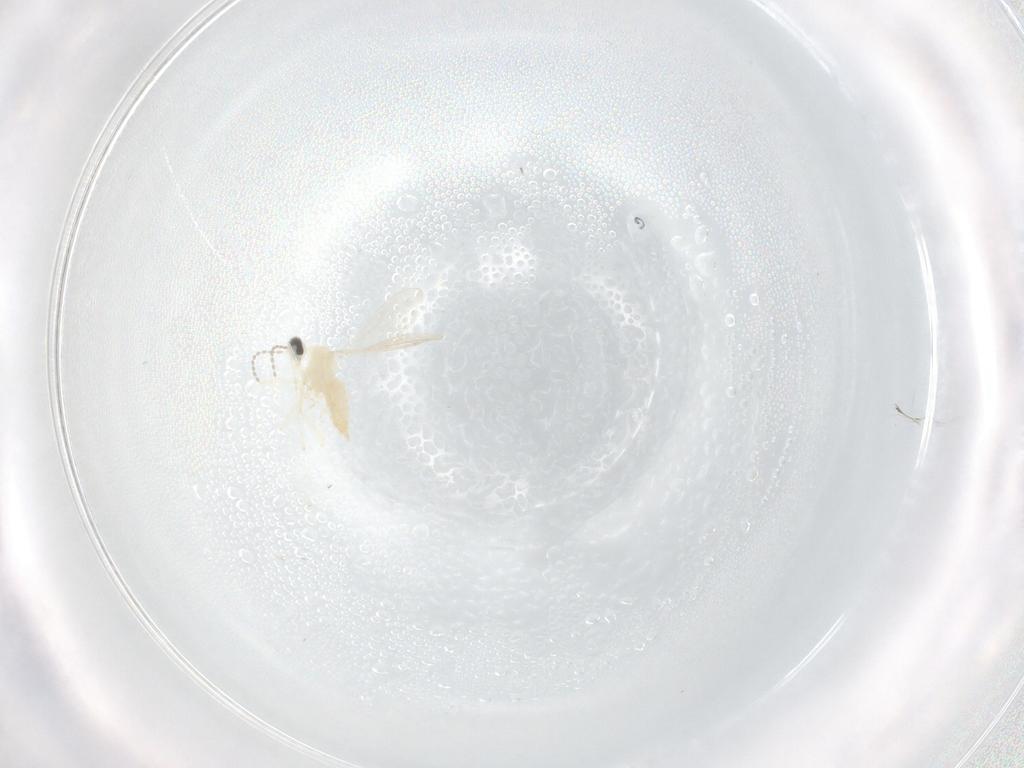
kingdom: Animalia
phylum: Arthropoda
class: Insecta
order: Diptera
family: Cecidomyiidae
